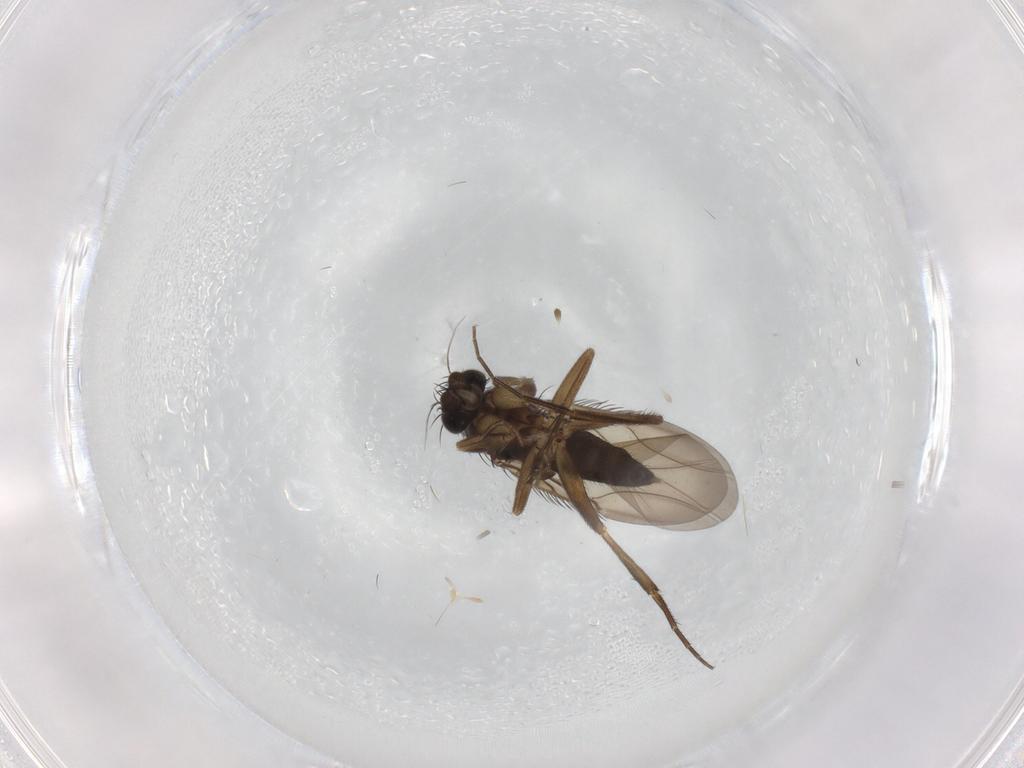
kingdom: Animalia
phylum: Arthropoda
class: Insecta
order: Diptera
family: Phoridae
